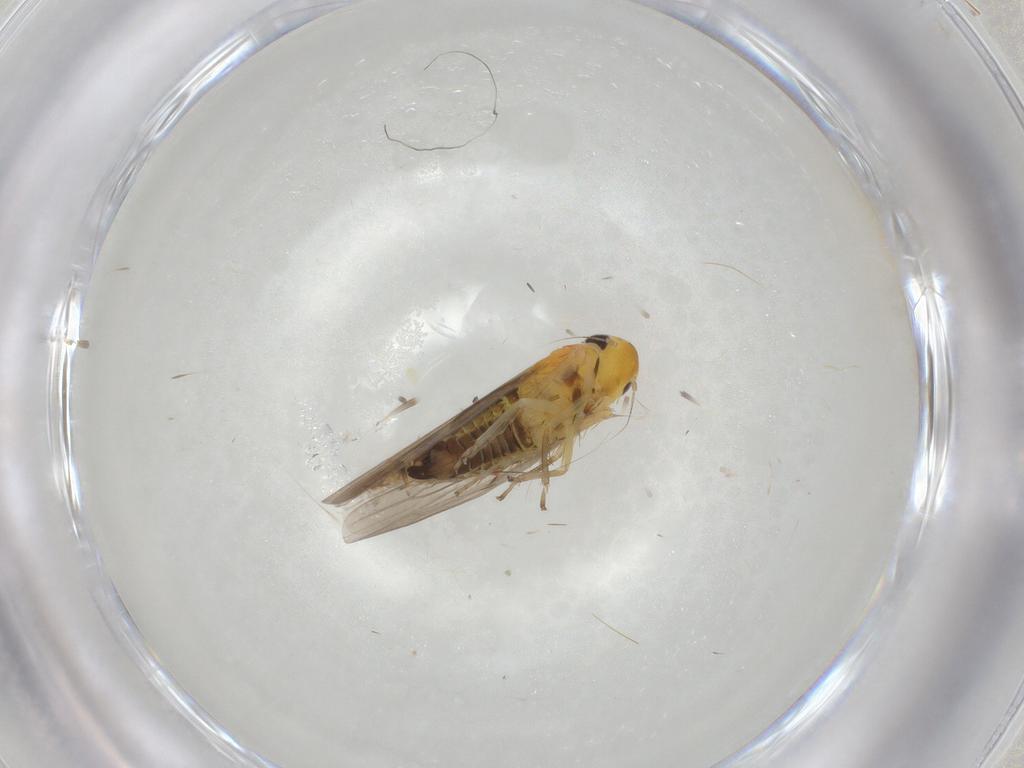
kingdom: Animalia
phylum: Arthropoda
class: Insecta
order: Hemiptera
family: Cicadellidae
